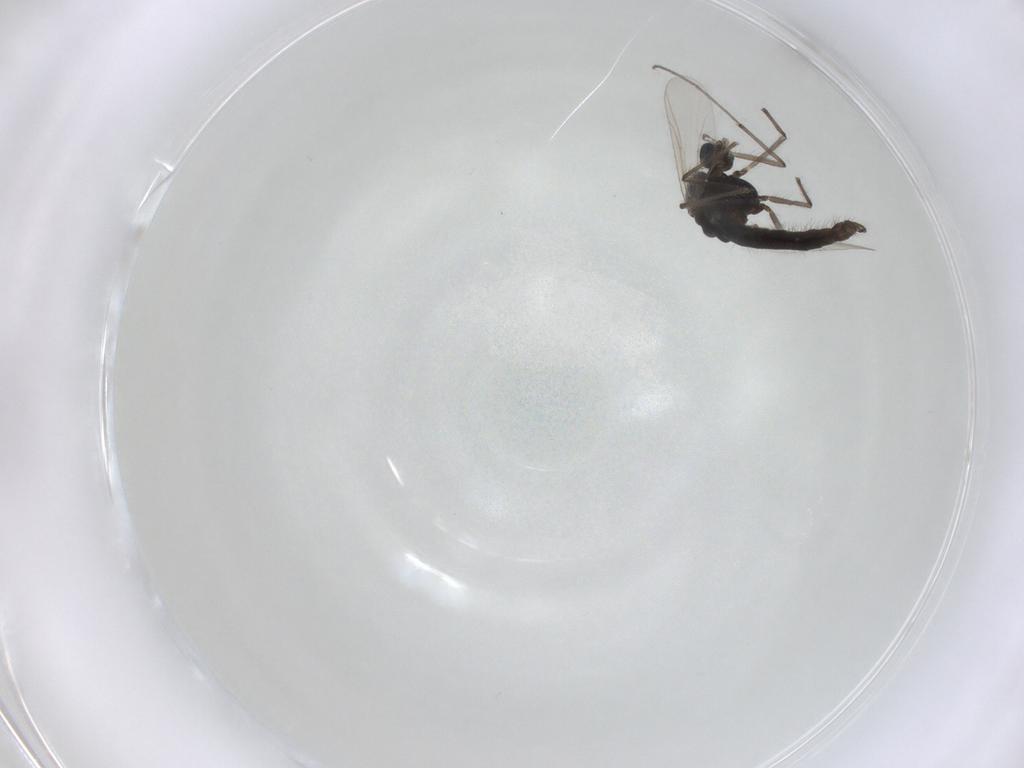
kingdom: Animalia
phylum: Arthropoda
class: Insecta
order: Diptera
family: Chironomidae
